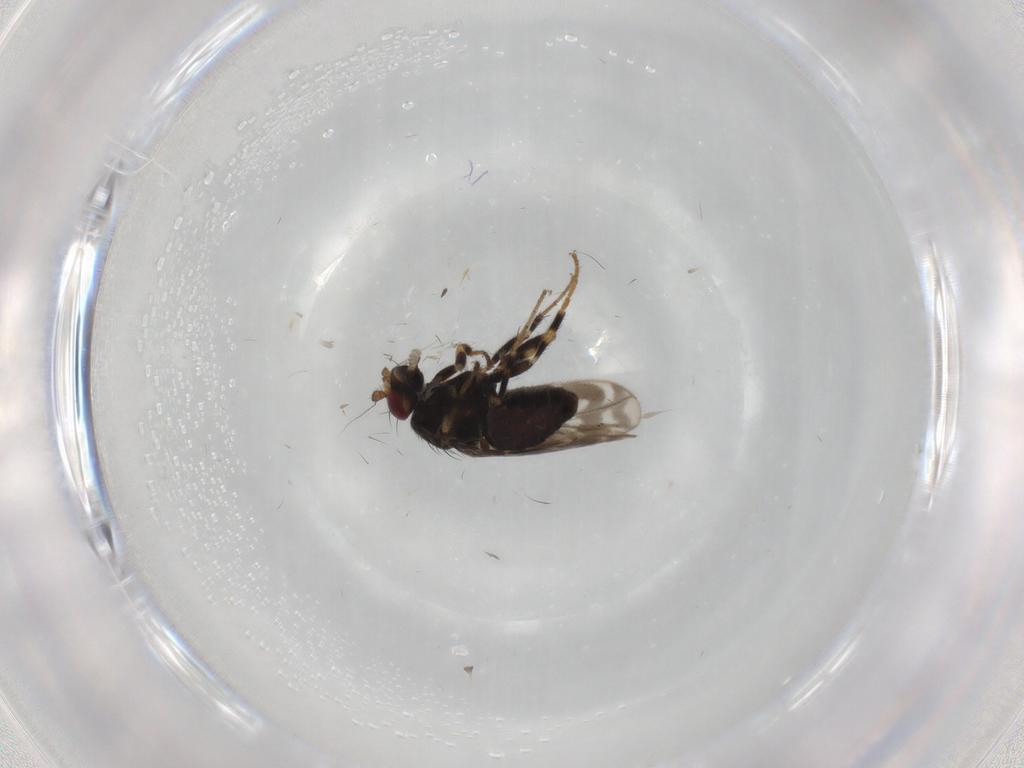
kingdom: Animalia
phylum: Arthropoda
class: Insecta
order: Diptera
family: Sphaeroceridae
